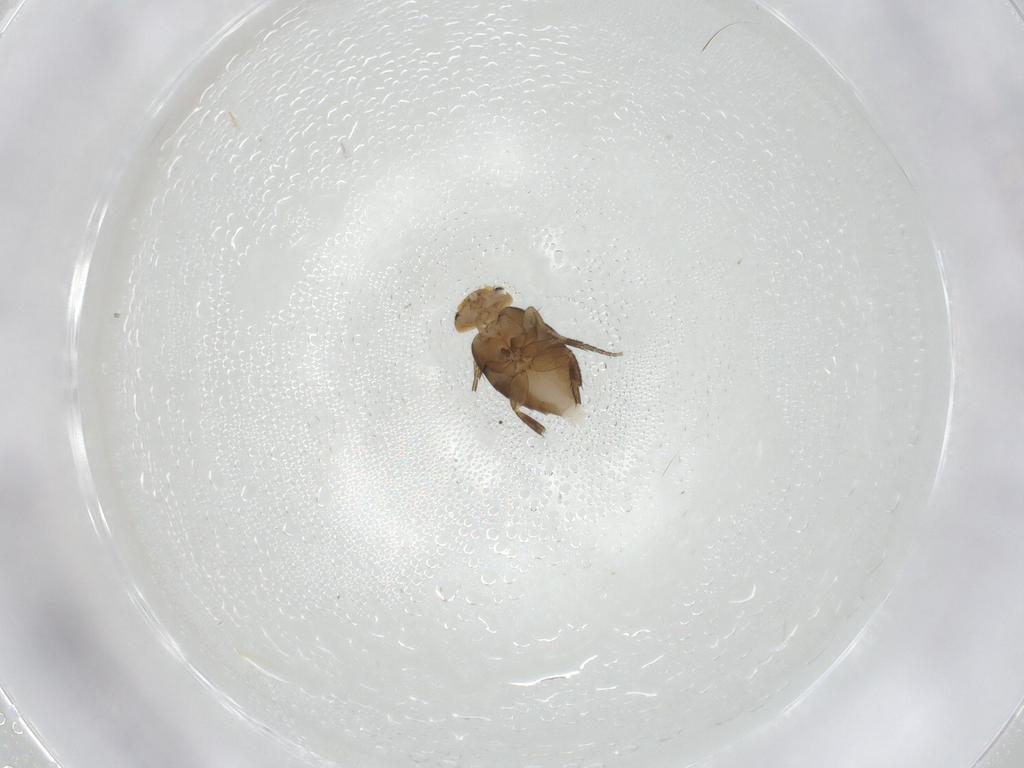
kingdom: Animalia
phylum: Arthropoda
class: Insecta
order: Diptera
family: Phoridae
